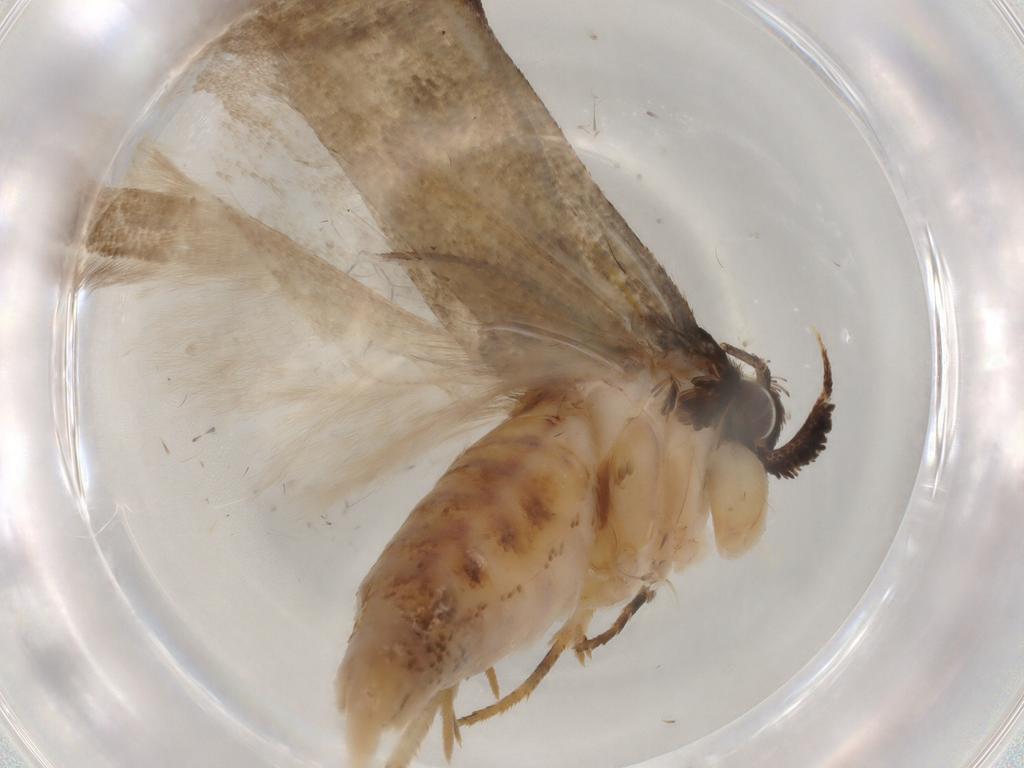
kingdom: Animalia
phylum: Arthropoda
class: Insecta
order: Lepidoptera
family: Gelechiidae
